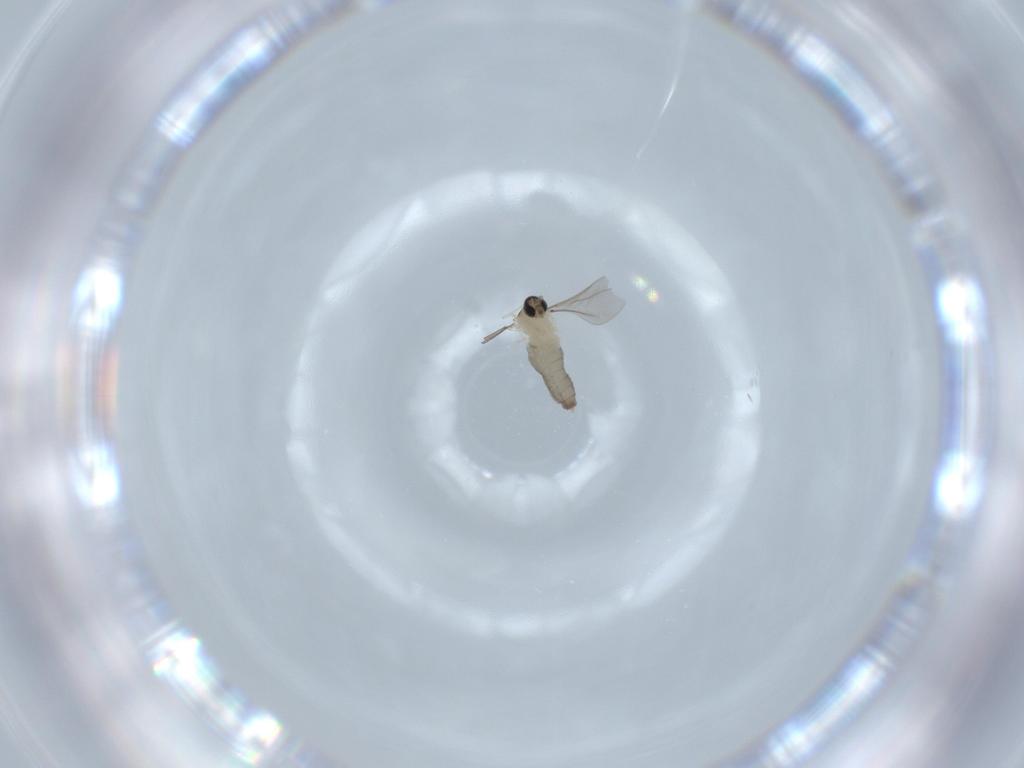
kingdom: Animalia
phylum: Arthropoda
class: Insecta
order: Diptera
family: Chironomidae
